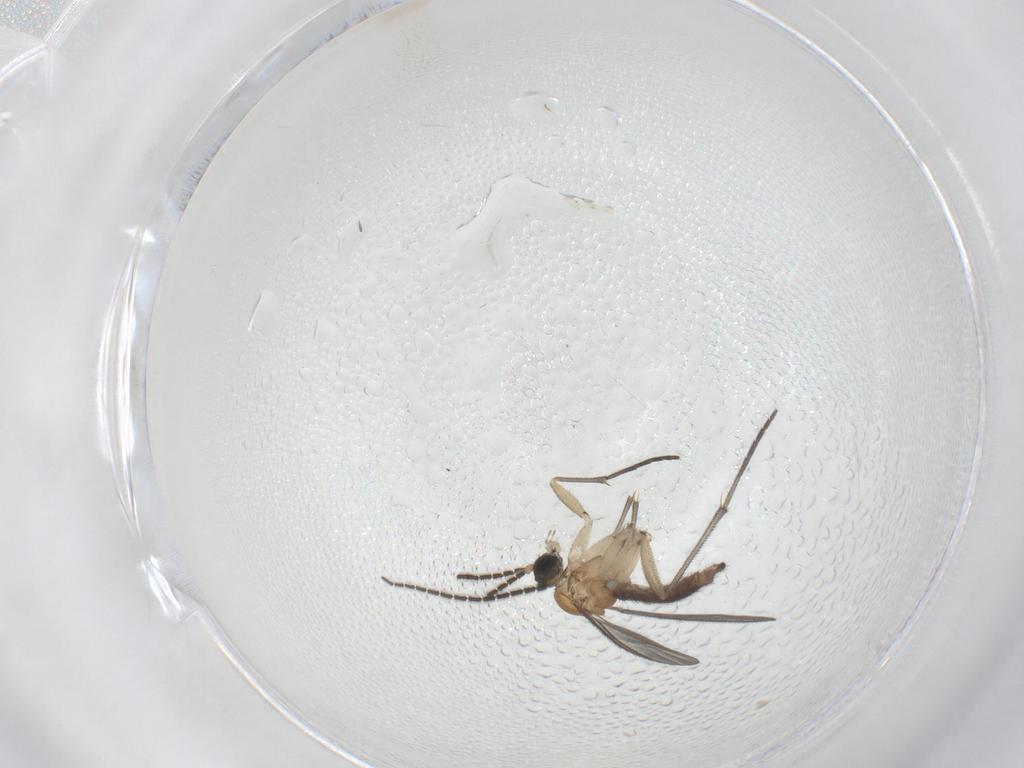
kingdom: Animalia
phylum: Arthropoda
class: Insecta
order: Diptera
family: Sciaridae
